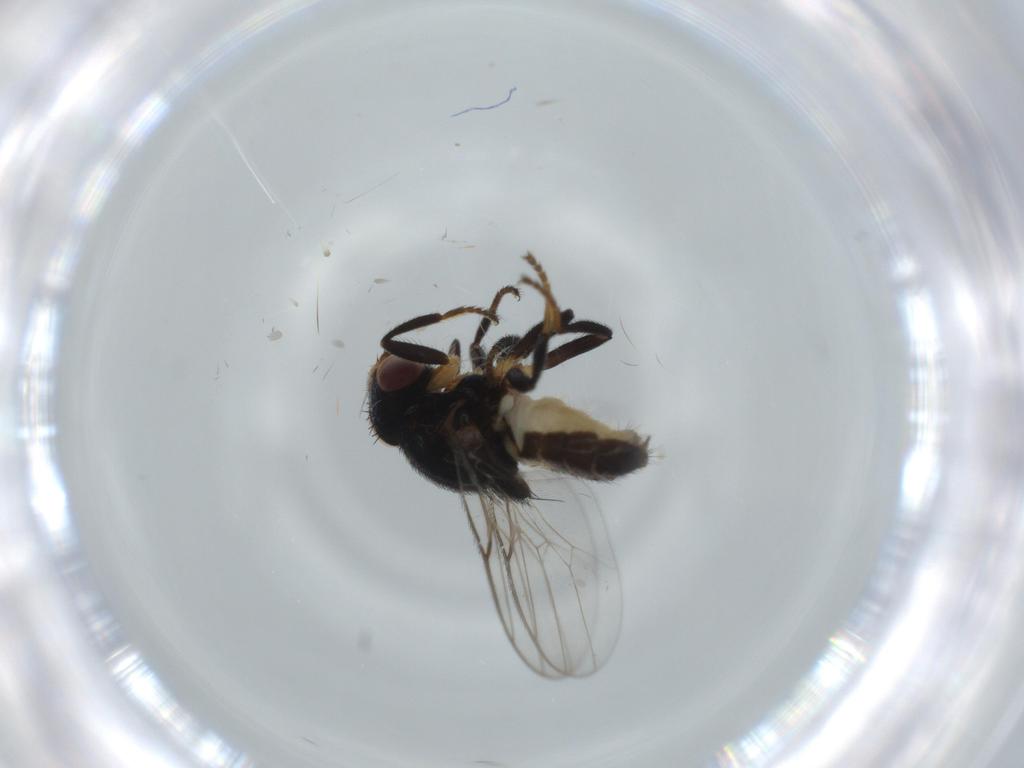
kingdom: Animalia
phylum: Arthropoda
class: Insecta
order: Diptera
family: Chloropidae
